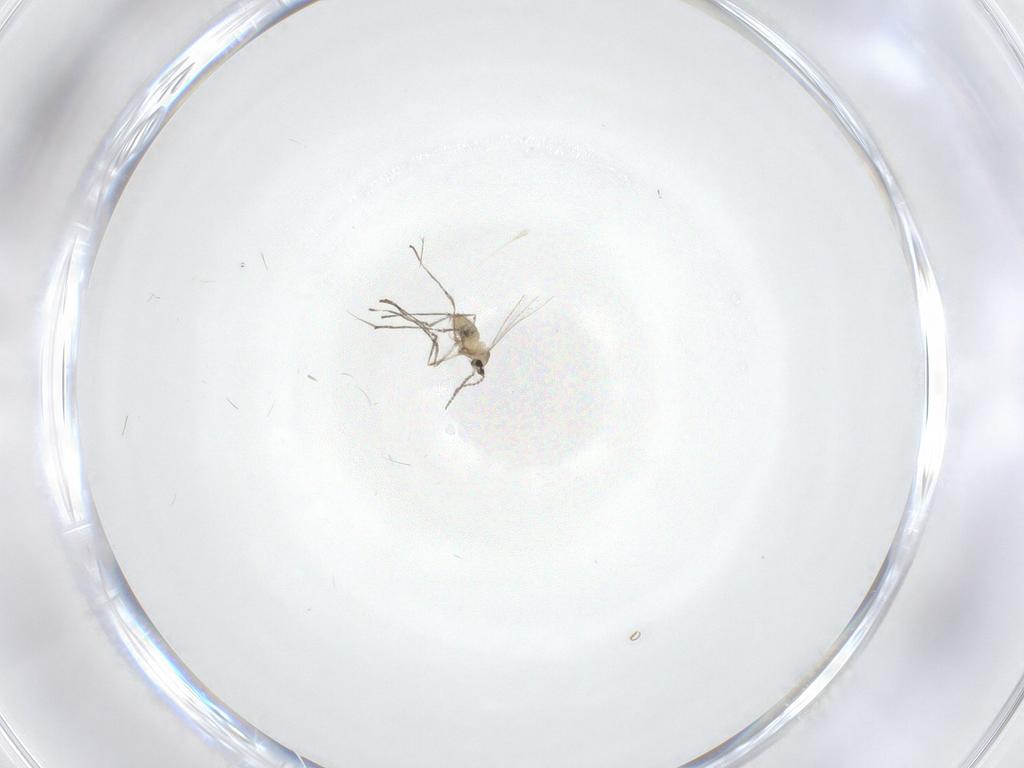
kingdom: Animalia
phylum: Arthropoda
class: Insecta
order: Diptera
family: Cecidomyiidae
